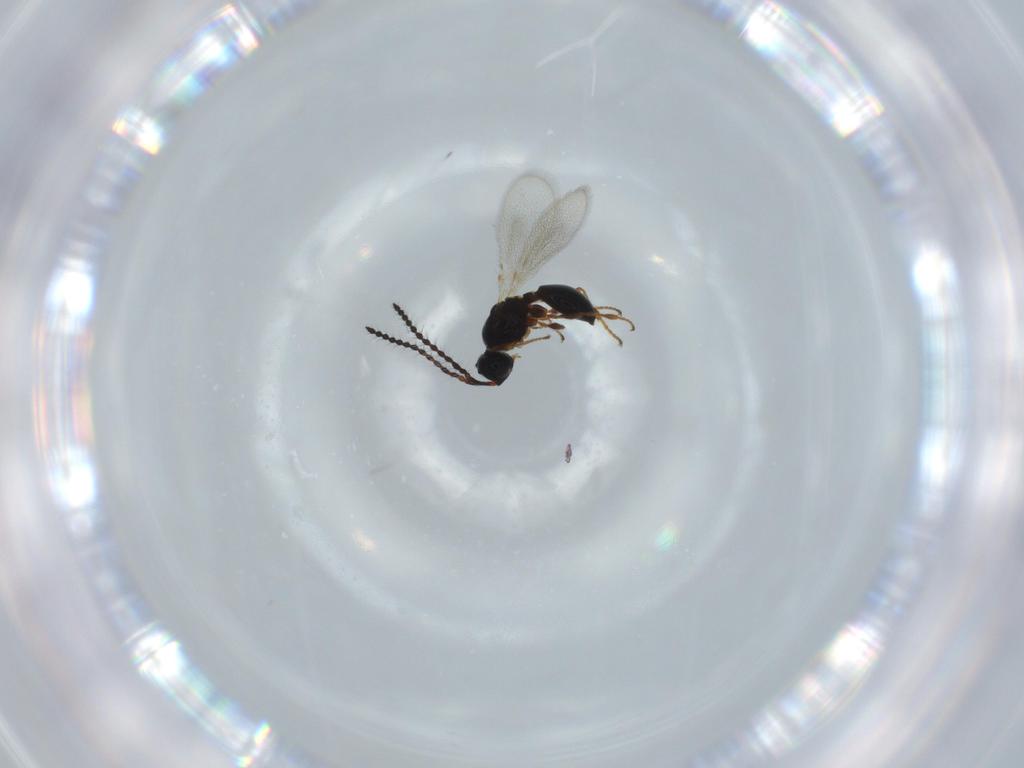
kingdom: Animalia
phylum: Arthropoda
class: Insecta
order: Hymenoptera
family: Diapriidae
